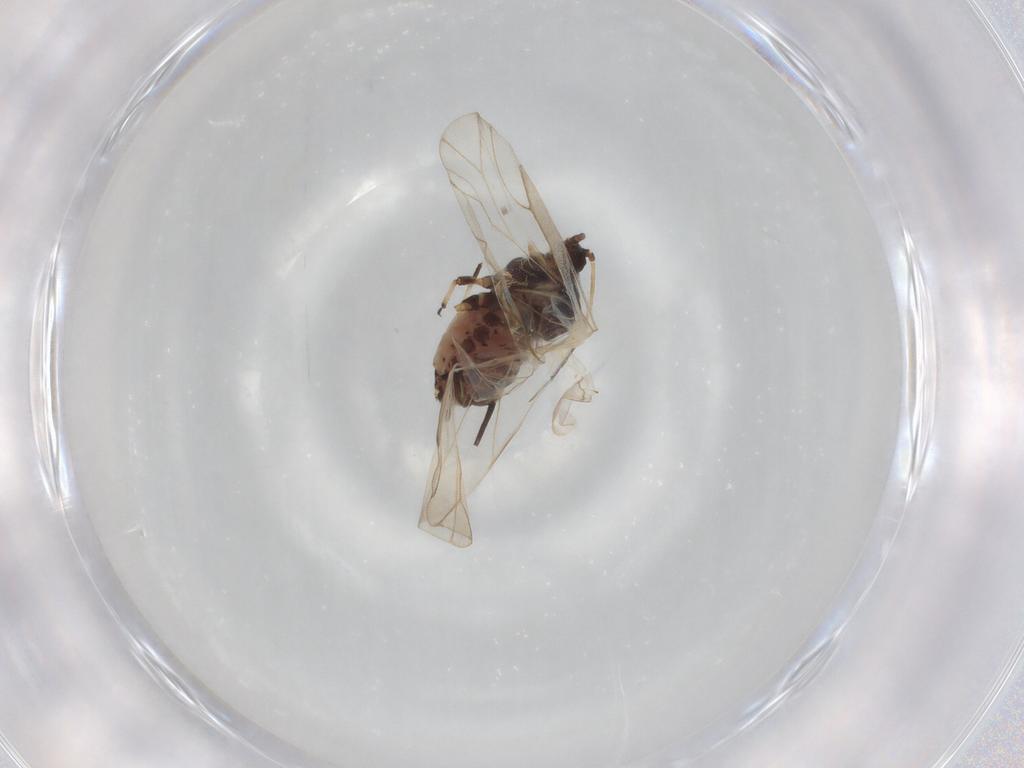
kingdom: Animalia
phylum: Arthropoda
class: Insecta
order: Hemiptera
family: Aphididae
